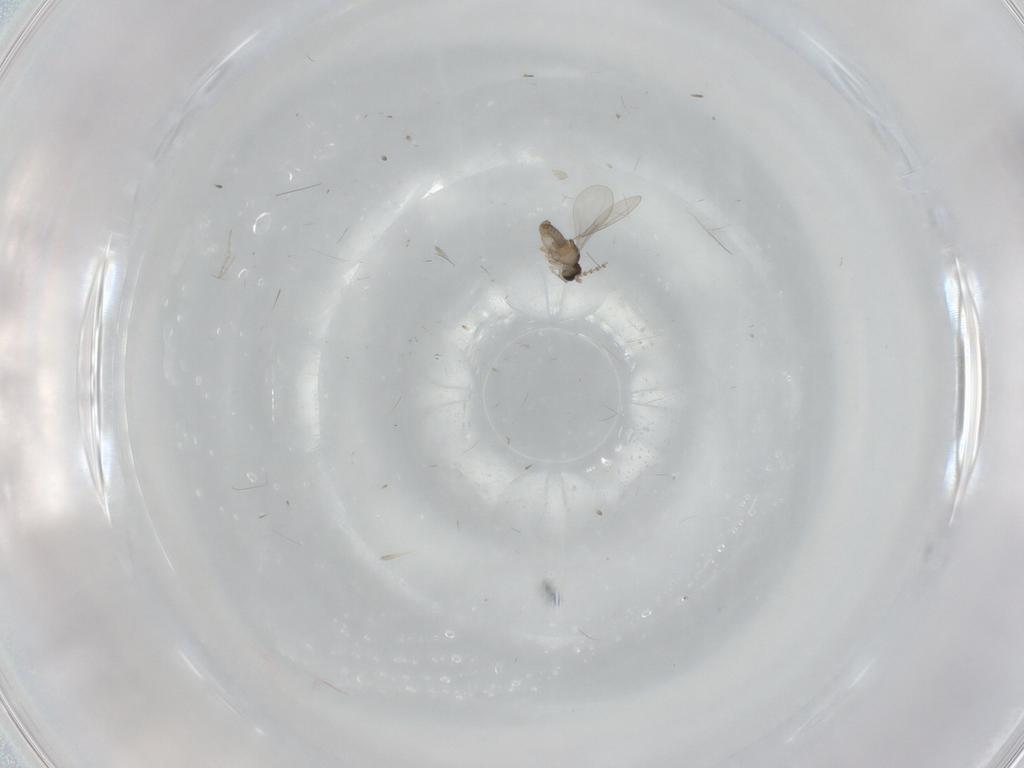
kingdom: Animalia
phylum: Arthropoda
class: Insecta
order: Diptera
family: Cecidomyiidae
